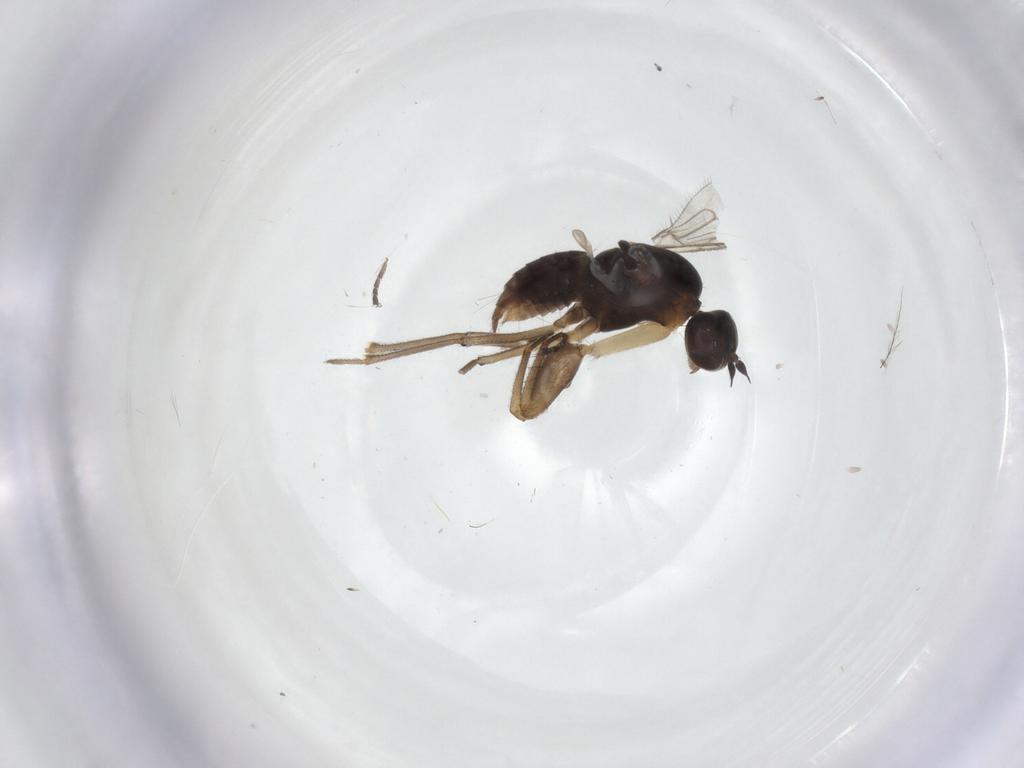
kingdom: Animalia
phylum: Arthropoda
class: Insecta
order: Diptera
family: Empididae
